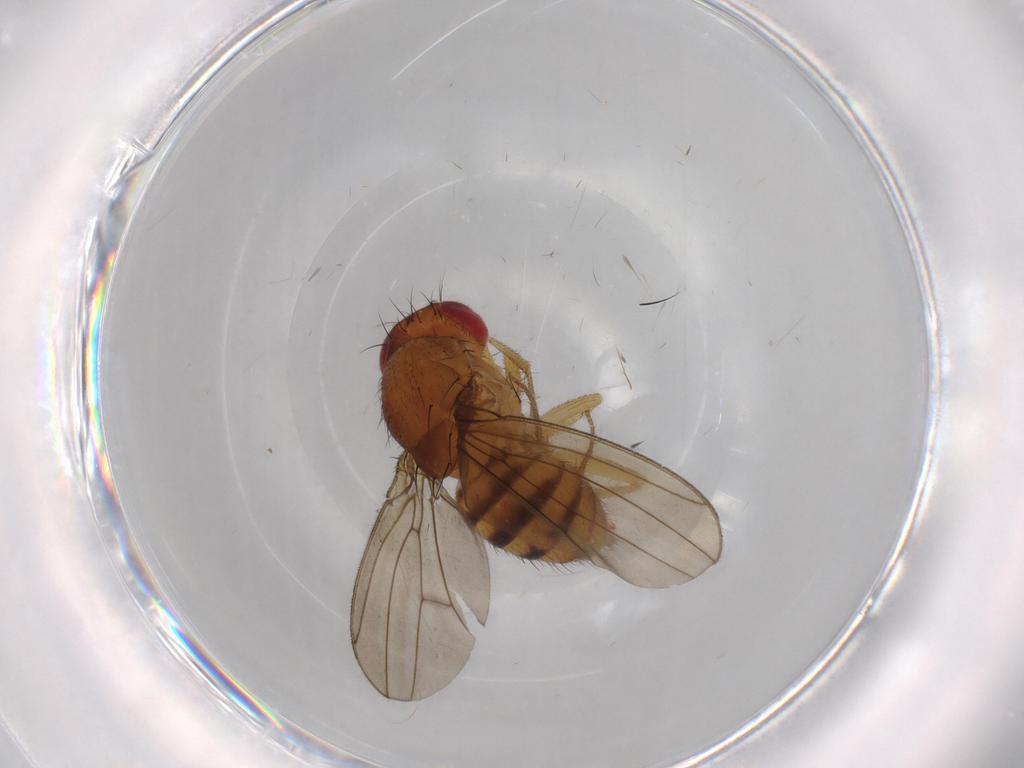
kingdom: Animalia
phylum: Arthropoda
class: Insecta
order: Diptera
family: Drosophilidae
